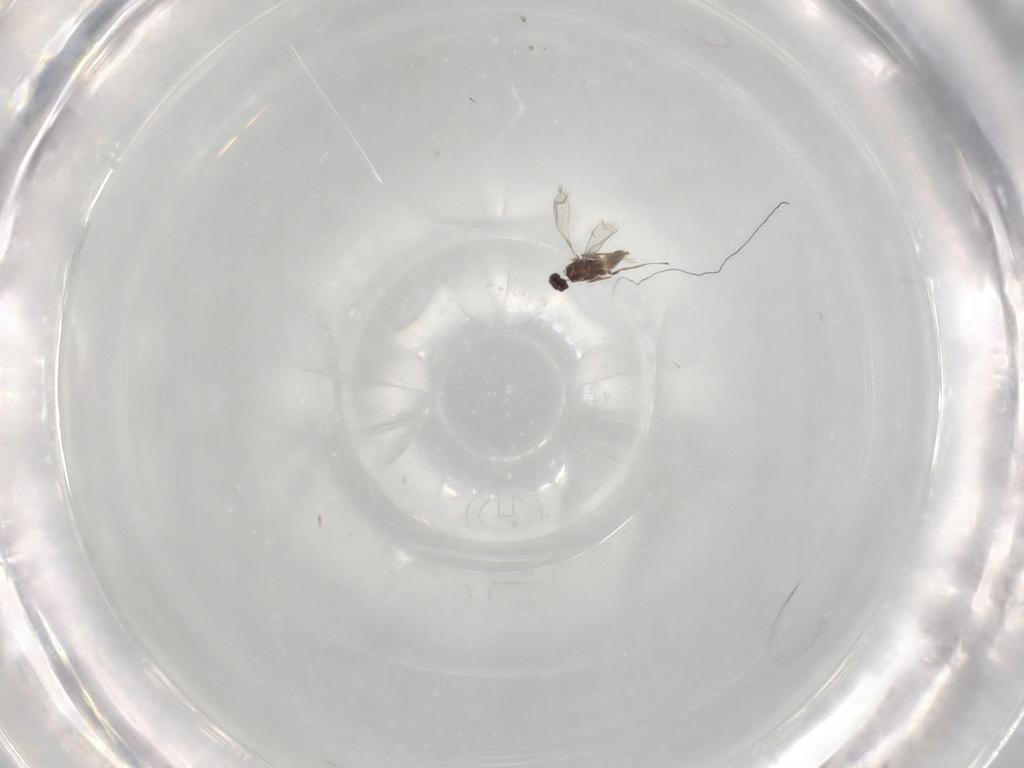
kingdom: Animalia
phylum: Arthropoda
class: Insecta
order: Hymenoptera
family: Mymaridae
